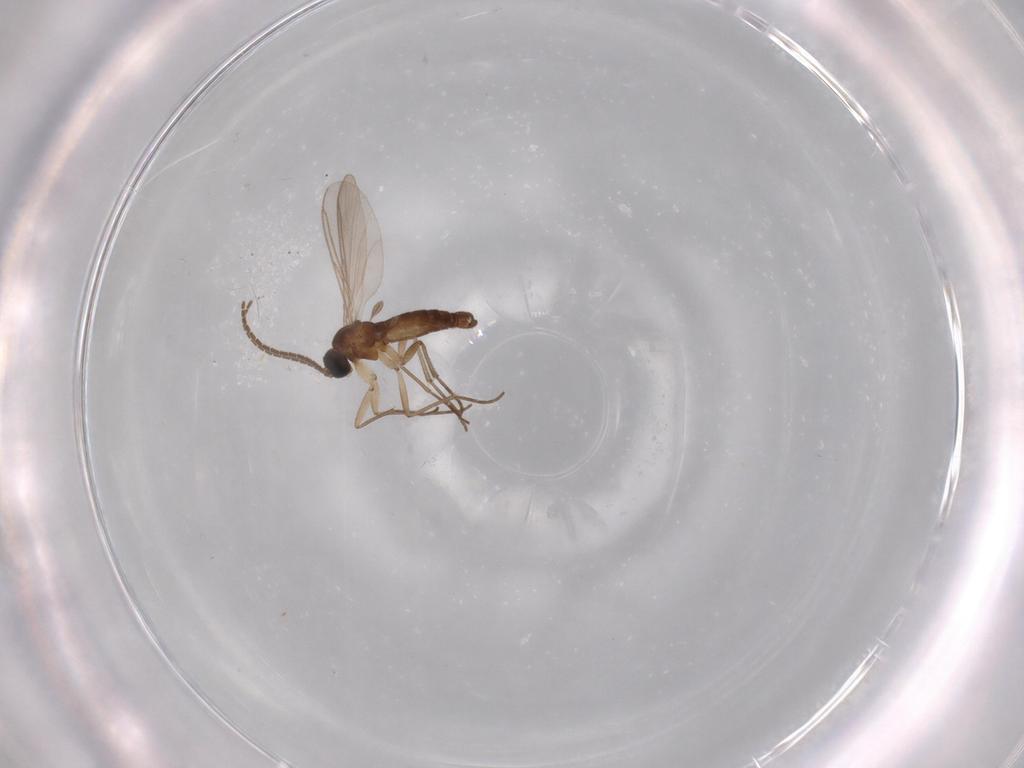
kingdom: Animalia
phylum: Arthropoda
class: Insecta
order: Diptera
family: Sciaridae
